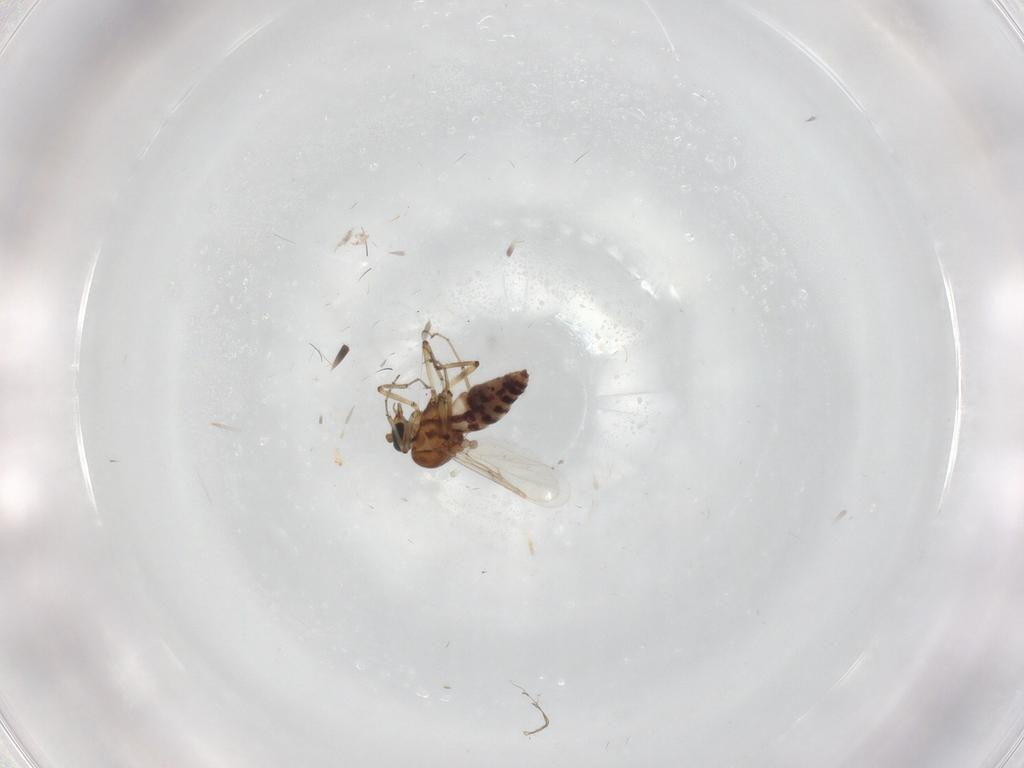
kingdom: Animalia
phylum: Arthropoda
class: Insecta
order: Diptera
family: Ceratopogonidae
